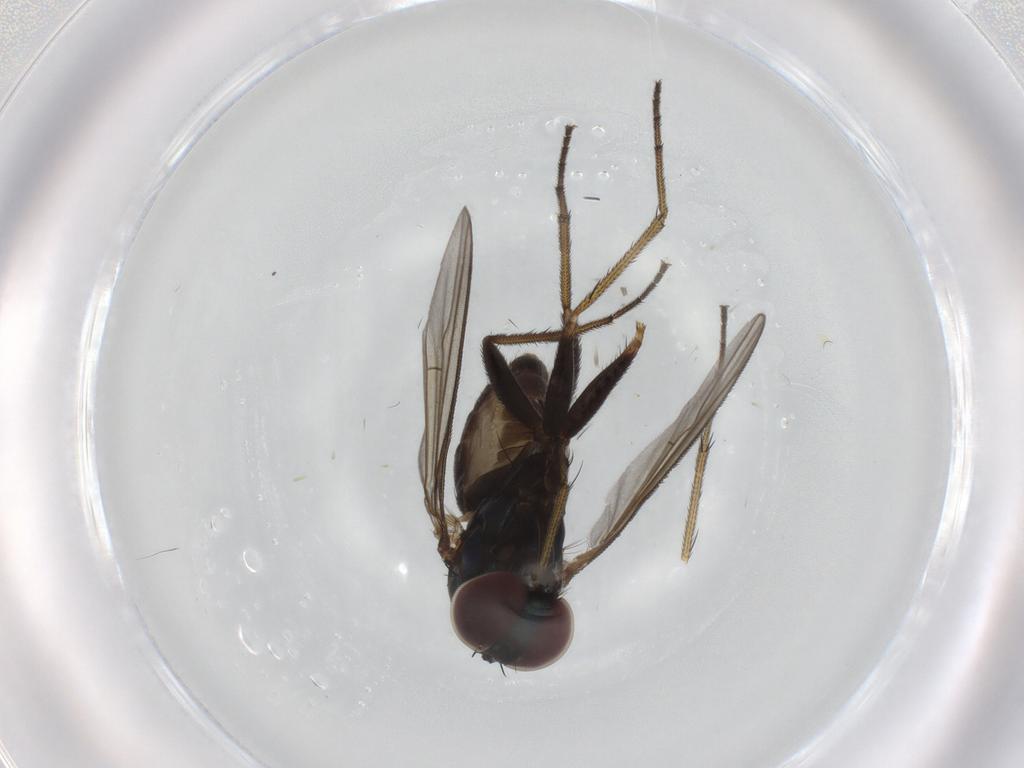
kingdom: Animalia
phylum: Arthropoda
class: Insecta
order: Diptera
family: Dolichopodidae
